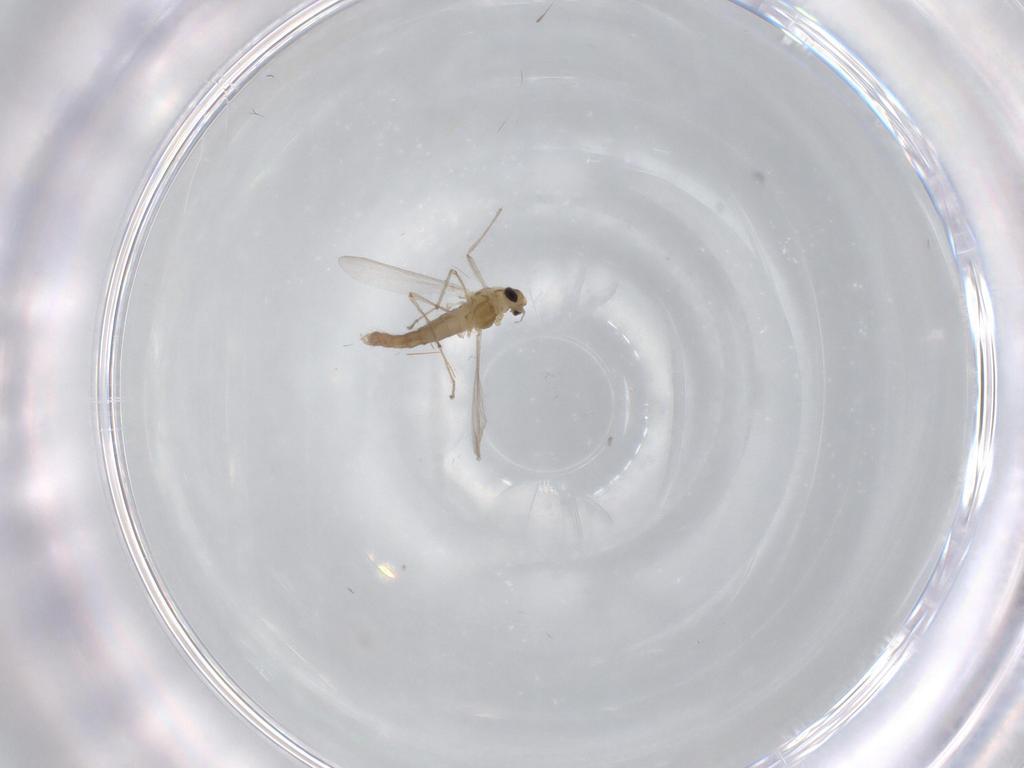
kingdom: Animalia
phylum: Arthropoda
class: Insecta
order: Diptera
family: Chironomidae
